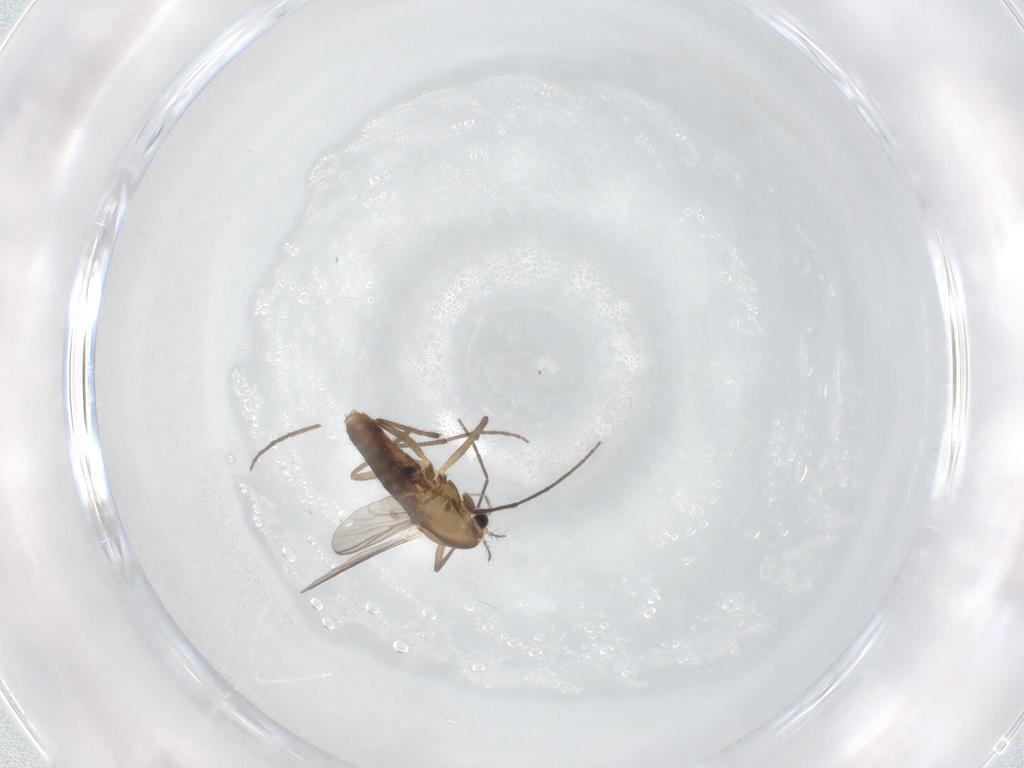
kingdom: Animalia
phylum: Arthropoda
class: Insecta
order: Diptera
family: Chironomidae
